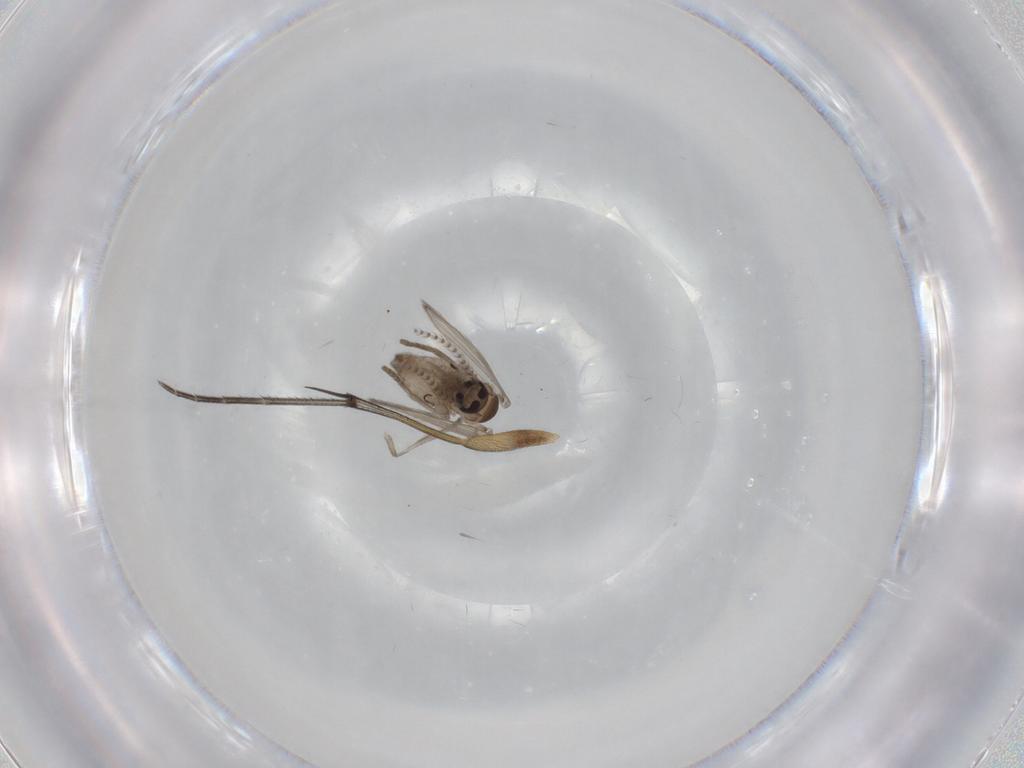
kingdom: Animalia
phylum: Arthropoda
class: Insecta
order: Diptera
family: Psychodidae
